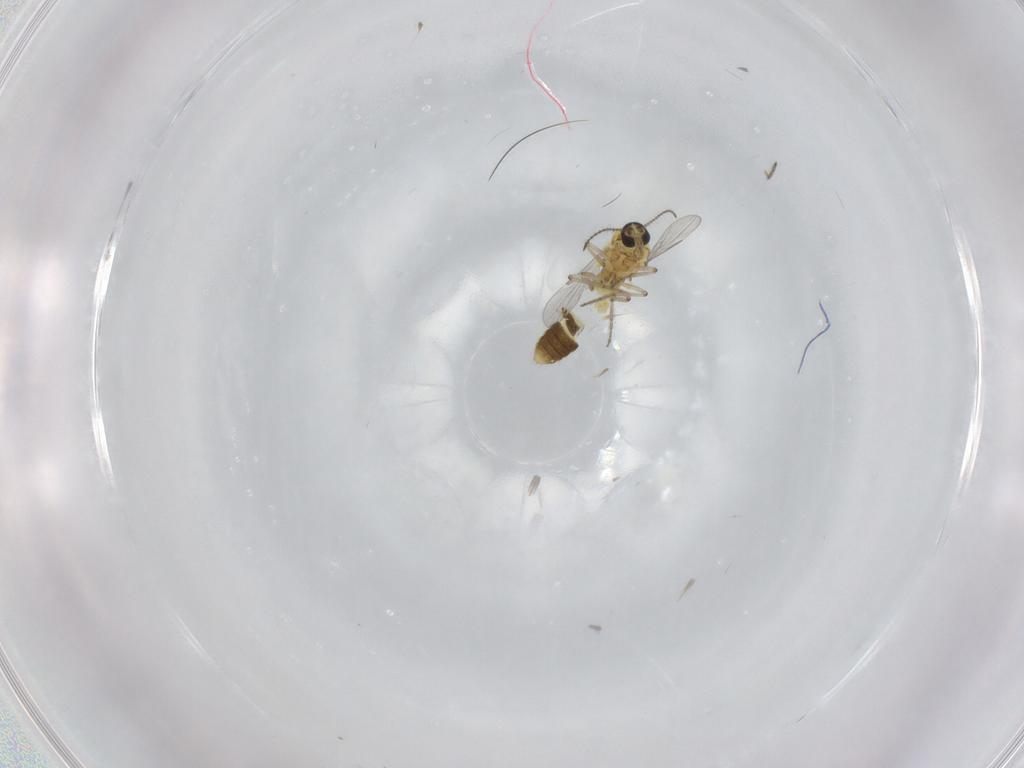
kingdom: Animalia
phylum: Arthropoda
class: Insecta
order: Diptera
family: Ceratopogonidae
